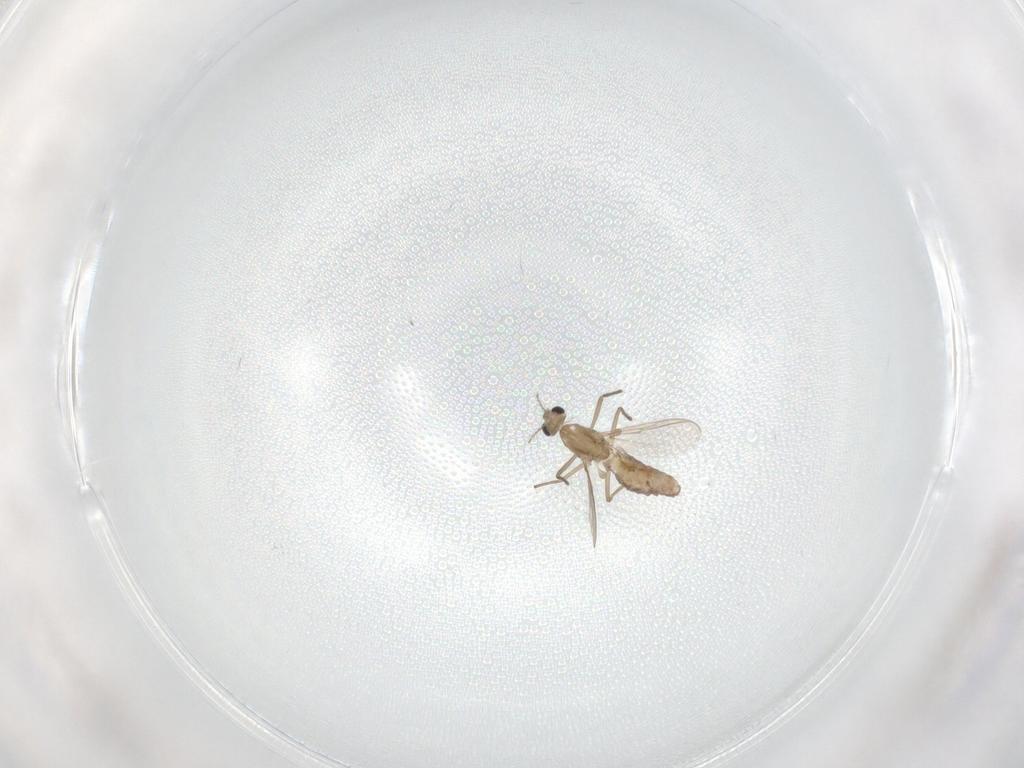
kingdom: Animalia
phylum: Arthropoda
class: Insecta
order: Diptera
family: Chironomidae
